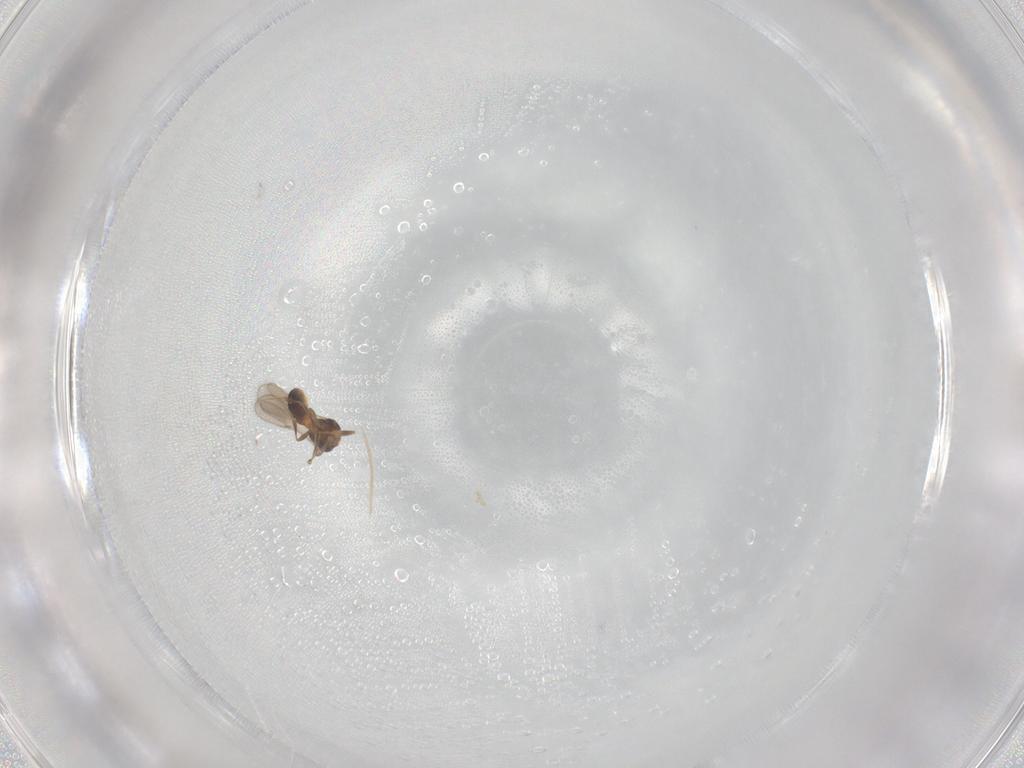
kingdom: Animalia
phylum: Arthropoda
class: Insecta
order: Hymenoptera
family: Scelionidae
